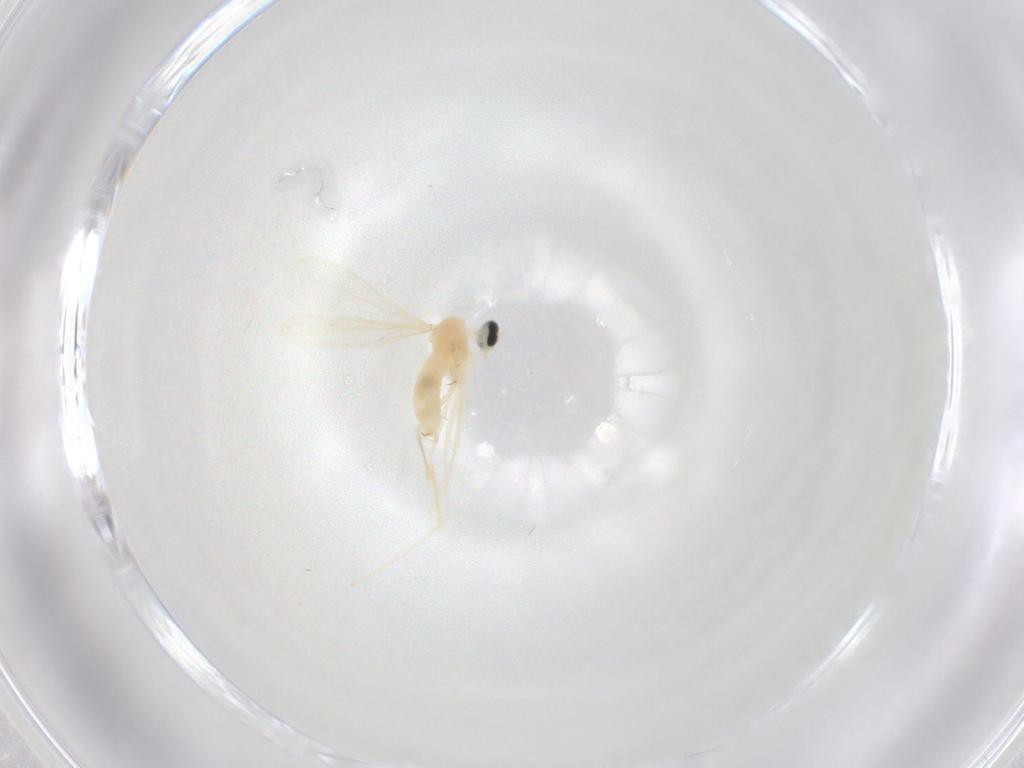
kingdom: Animalia
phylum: Arthropoda
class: Insecta
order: Diptera
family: Cecidomyiidae
